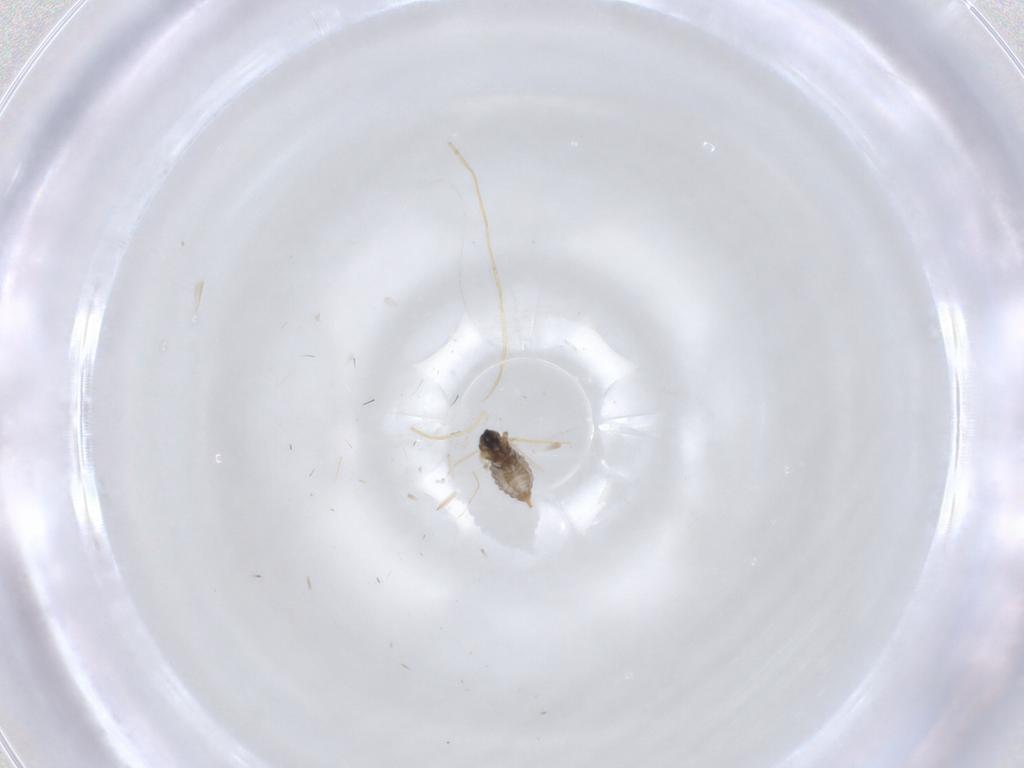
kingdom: Animalia
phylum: Arthropoda
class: Insecta
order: Diptera
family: Cecidomyiidae
